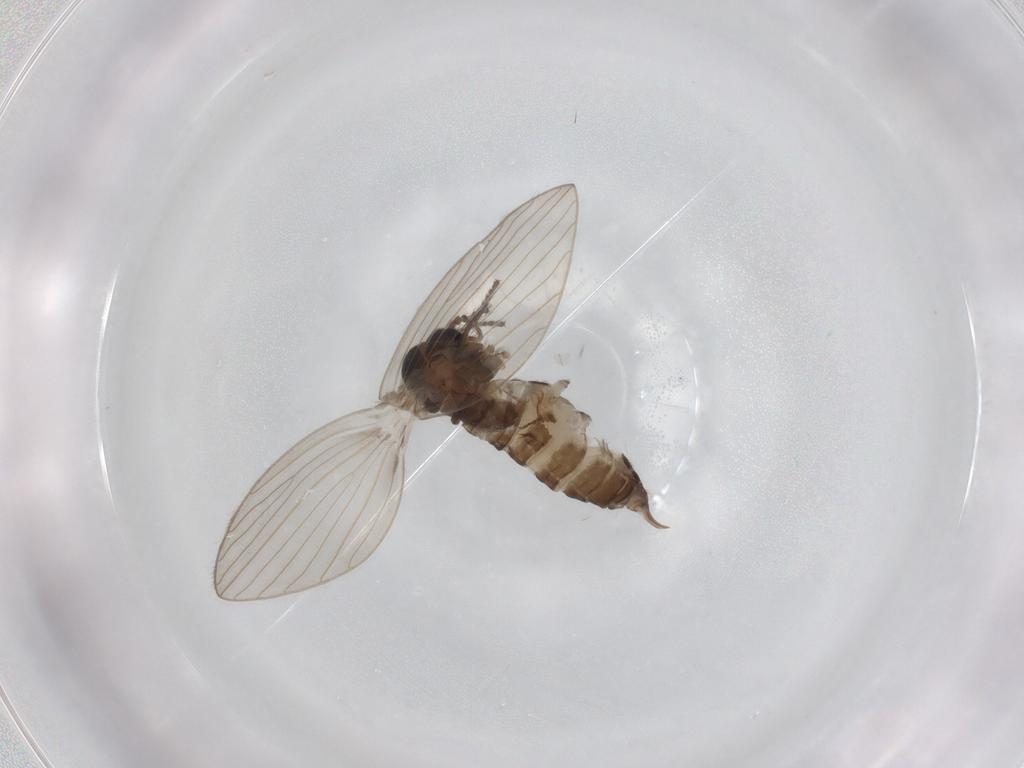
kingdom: Animalia
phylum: Arthropoda
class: Insecta
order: Diptera
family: Psychodidae
